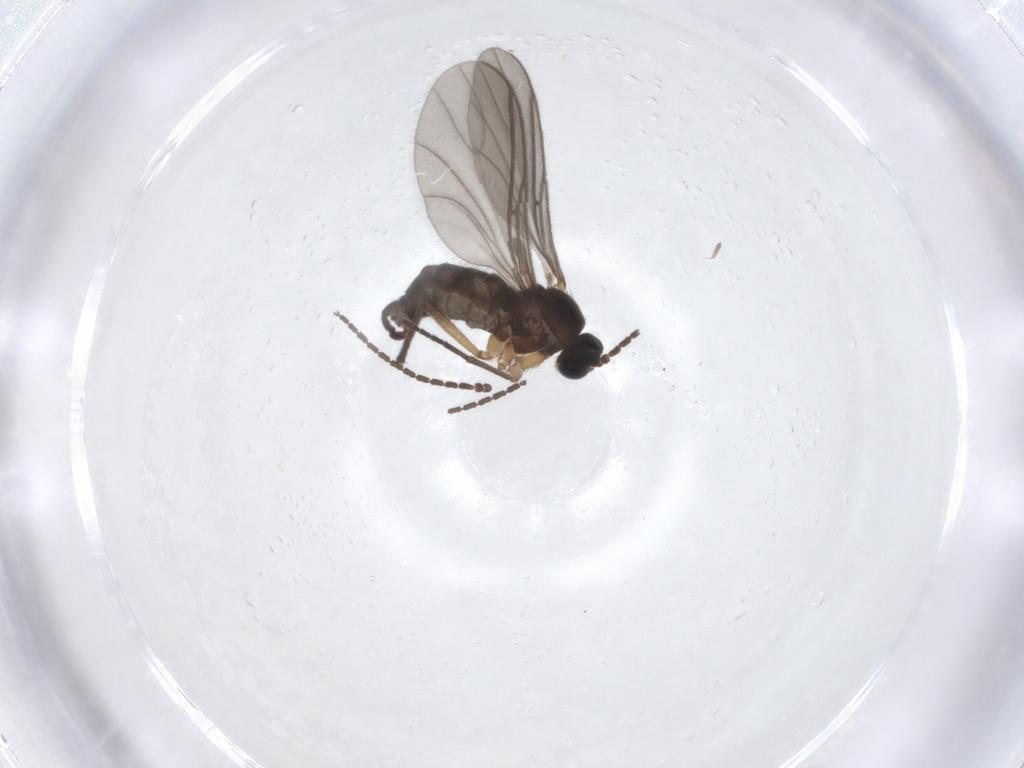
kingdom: Animalia
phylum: Arthropoda
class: Insecta
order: Diptera
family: Sciaridae
